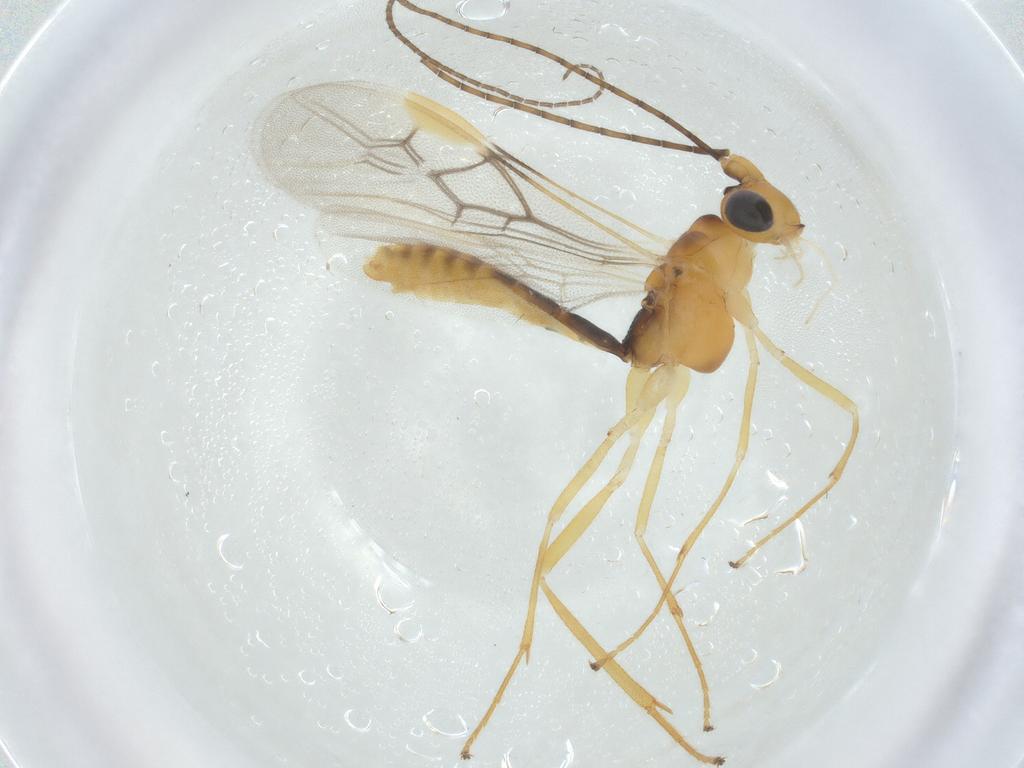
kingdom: Animalia
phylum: Arthropoda
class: Insecta
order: Hymenoptera
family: Braconidae
